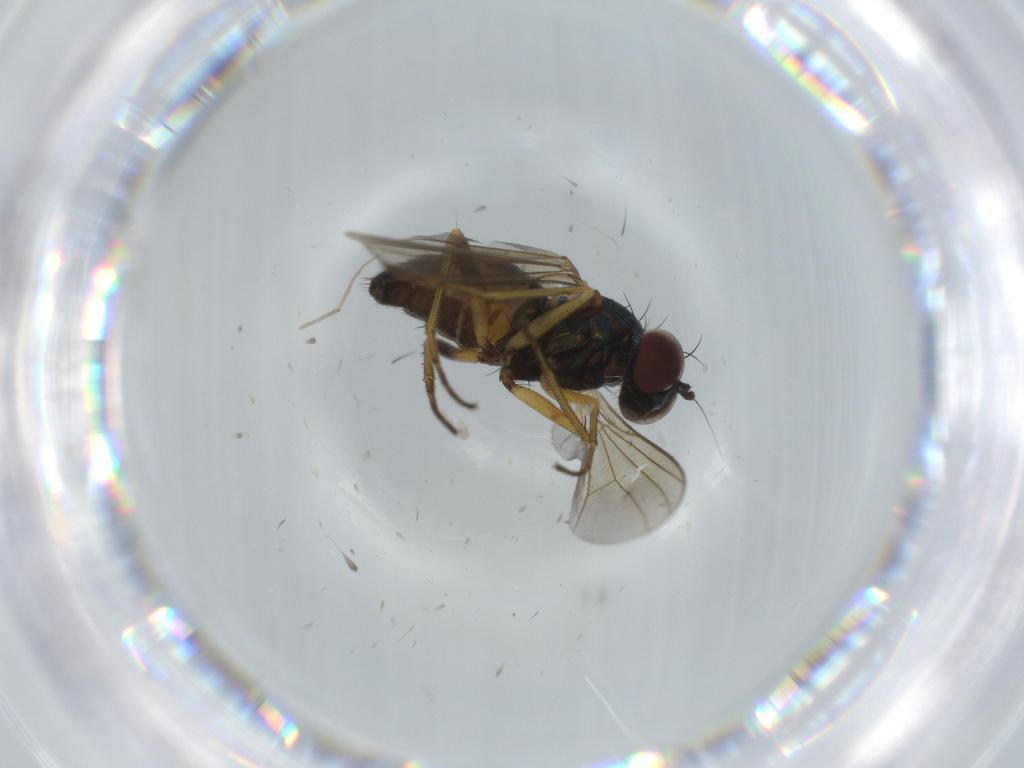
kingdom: Animalia
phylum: Arthropoda
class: Insecta
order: Diptera
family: Dolichopodidae
